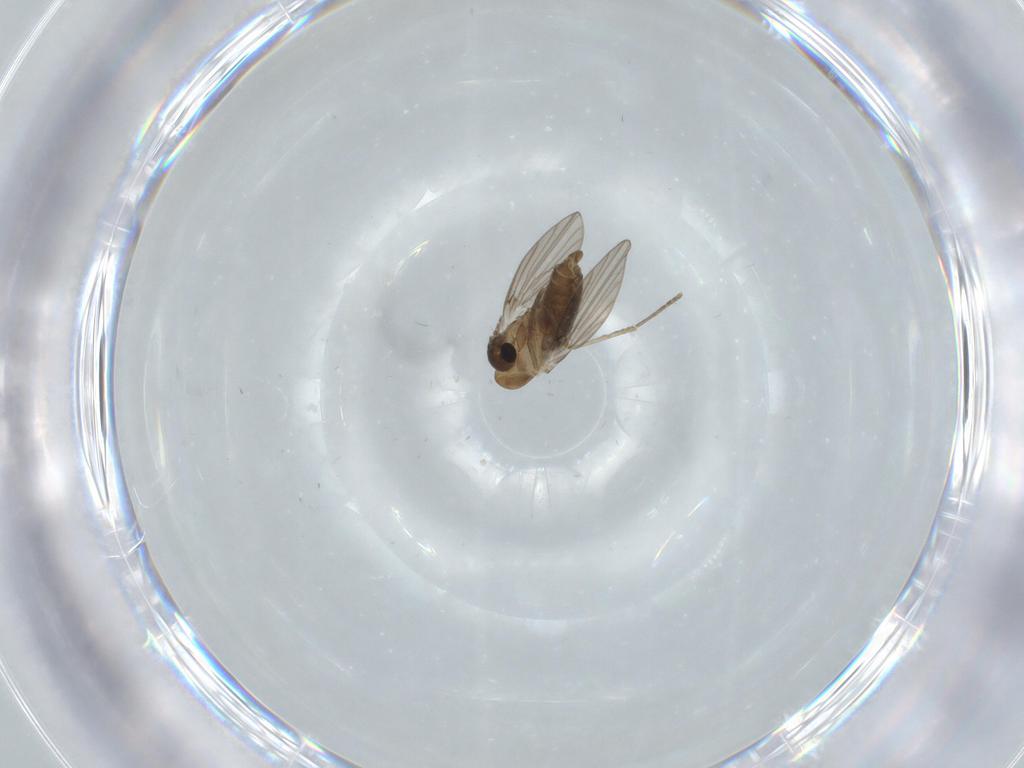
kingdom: Animalia
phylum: Arthropoda
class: Insecta
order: Diptera
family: Psychodidae
